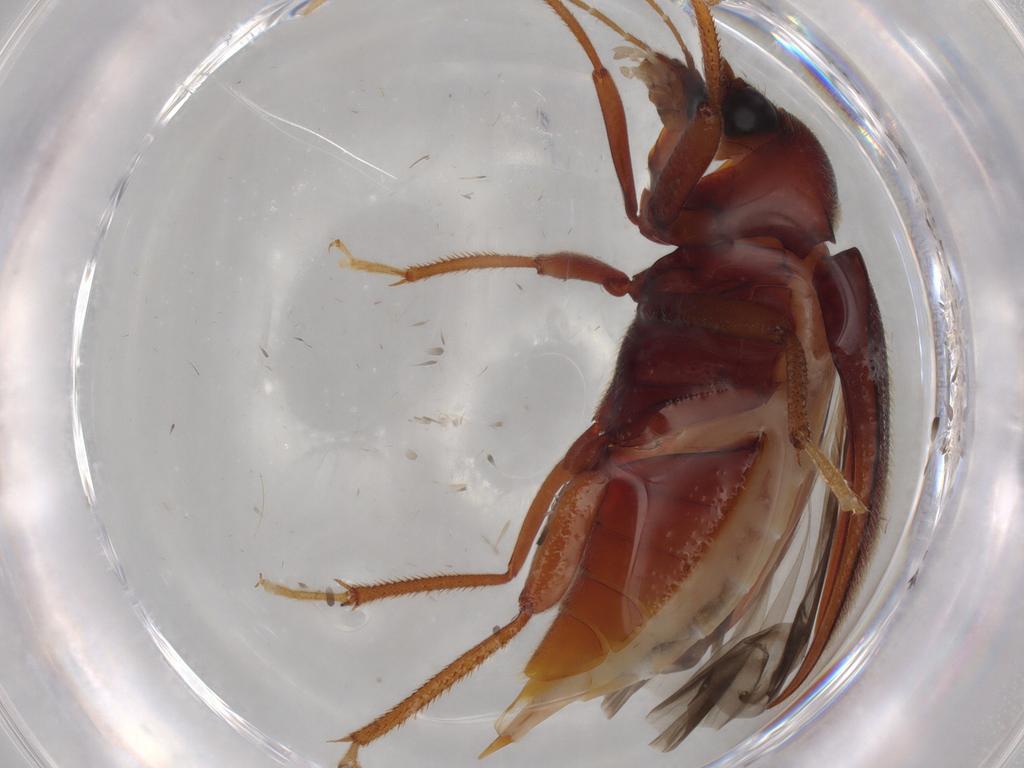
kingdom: Animalia
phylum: Arthropoda
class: Insecta
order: Coleoptera
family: Ptilodactylidae
